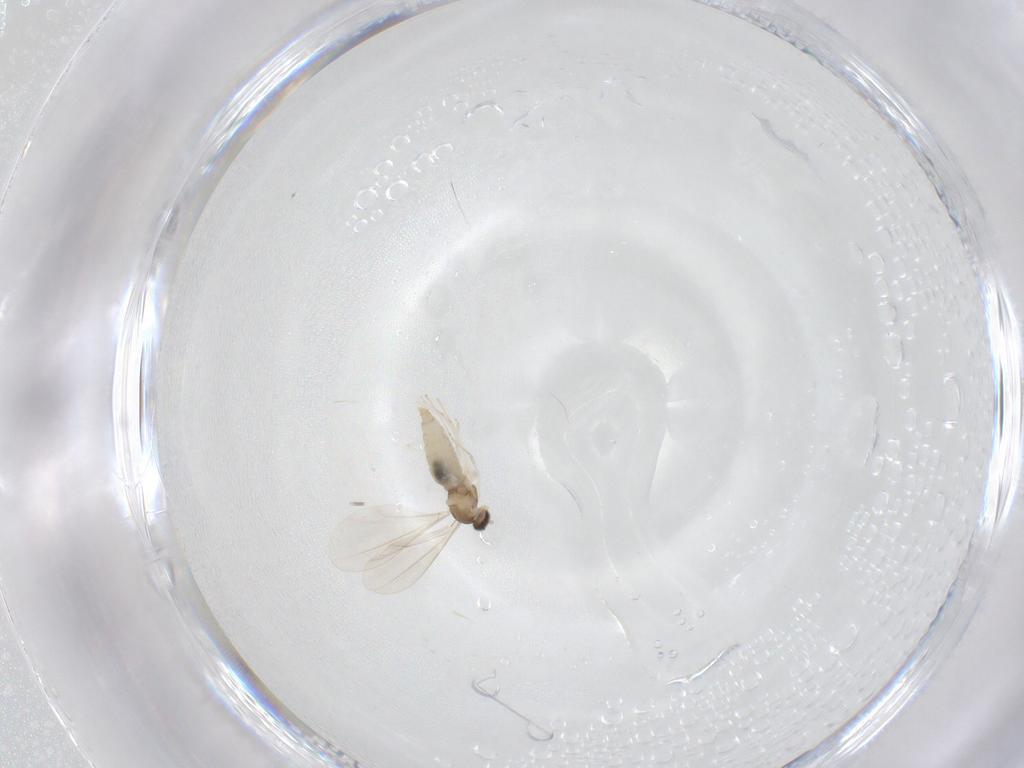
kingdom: Animalia
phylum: Arthropoda
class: Insecta
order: Diptera
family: Cecidomyiidae
